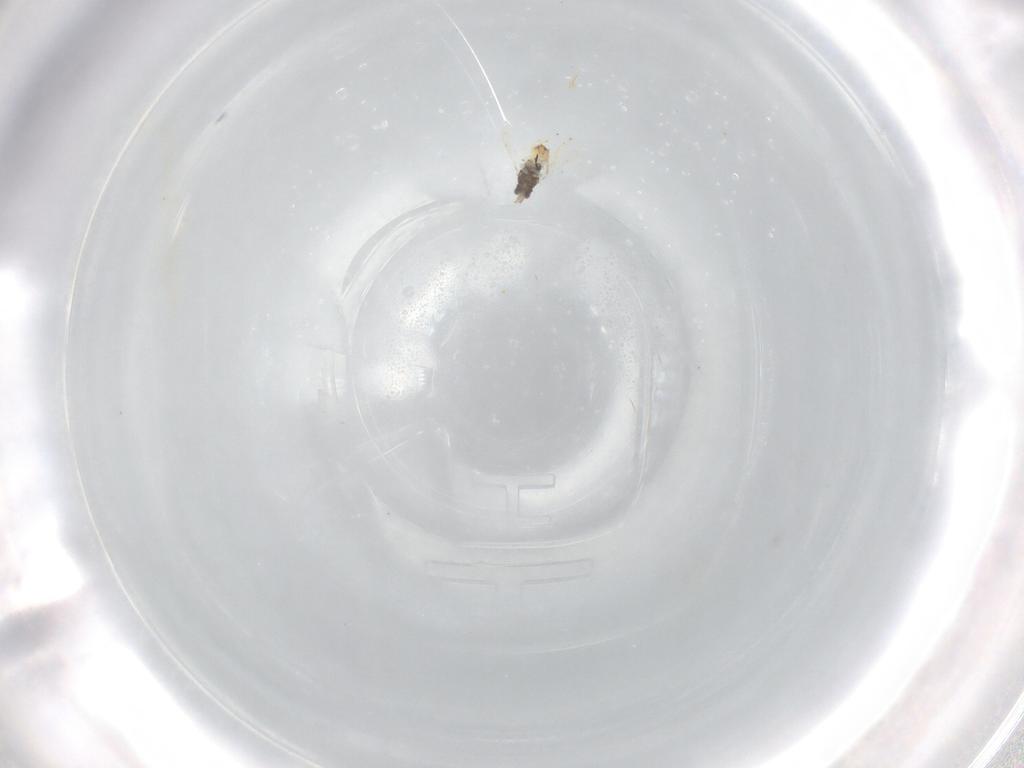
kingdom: Animalia
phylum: Arthropoda
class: Insecta
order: Hymenoptera
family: Eulophidae
